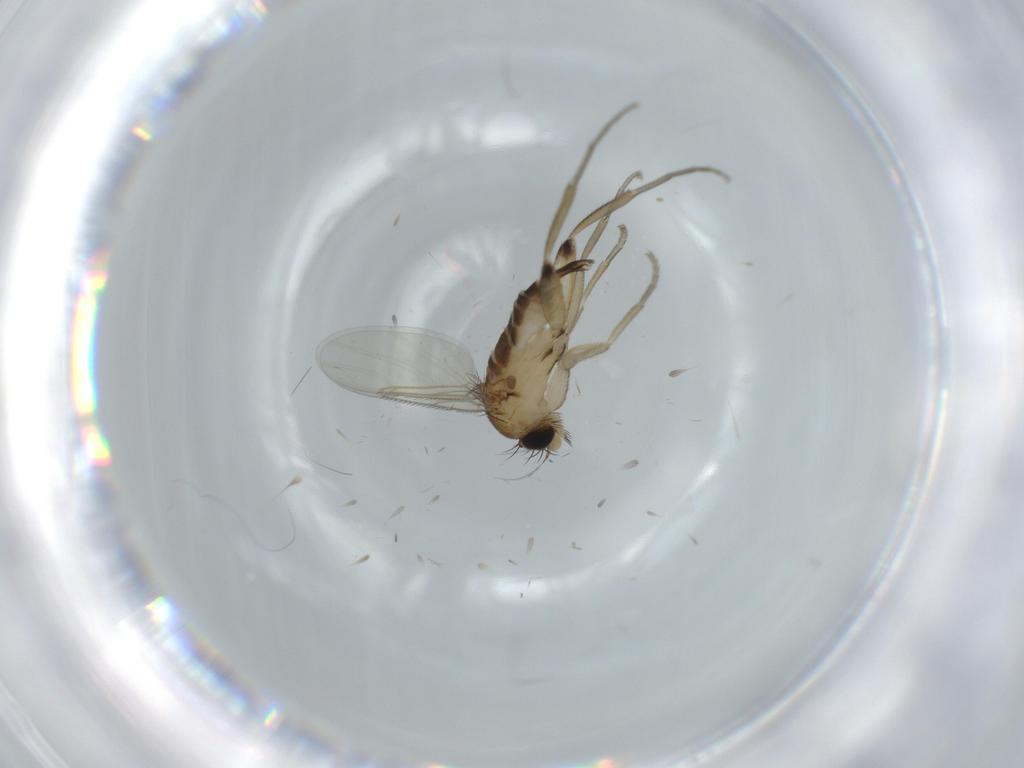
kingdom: Animalia
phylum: Arthropoda
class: Insecta
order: Diptera
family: Phoridae
